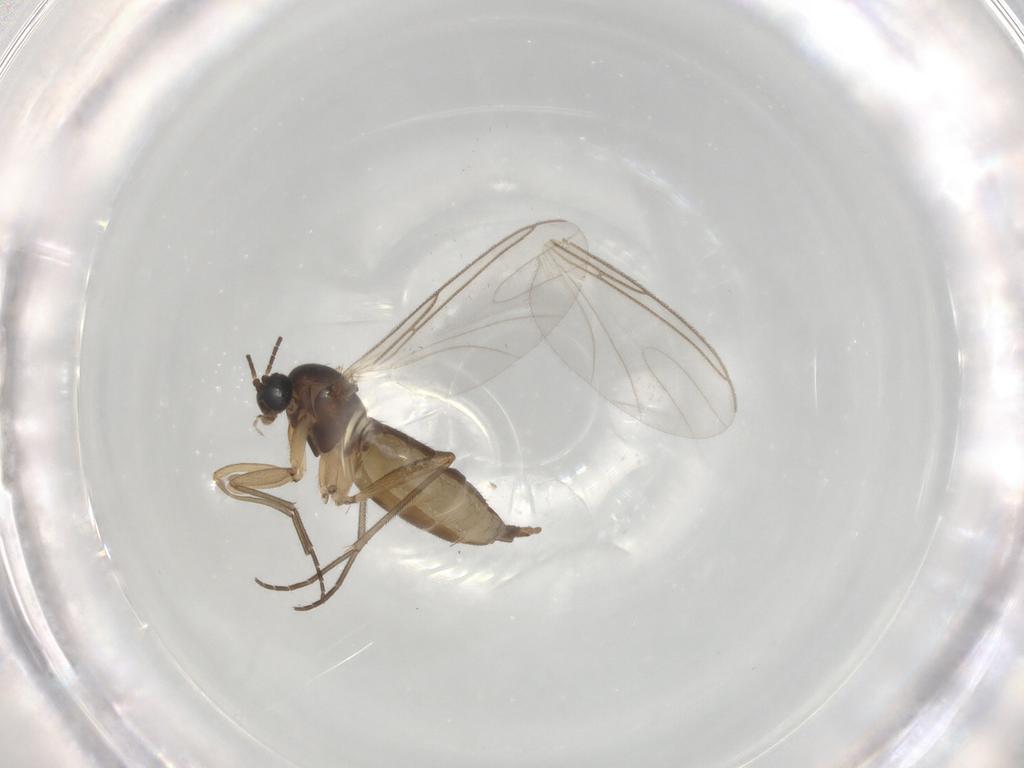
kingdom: Animalia
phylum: Arthropoda
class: Insecta
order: Diptera
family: Sciaridae
